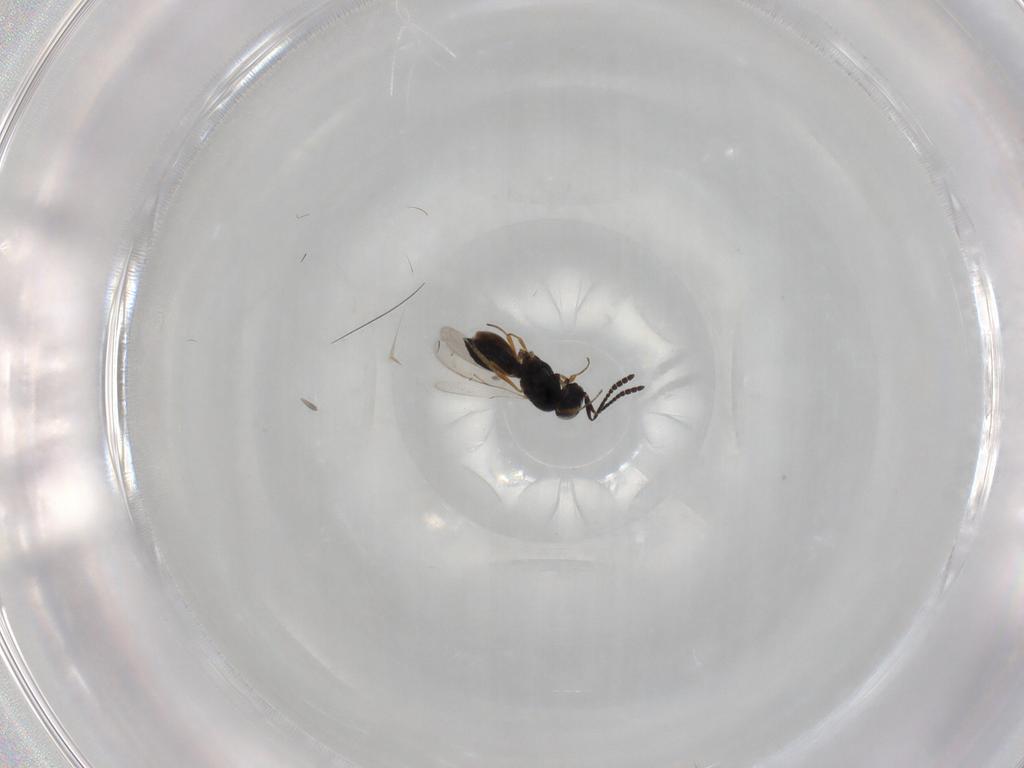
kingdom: Animalia
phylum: Arthropoda
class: Insecta
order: Hymenoptera
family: Scelionidae
